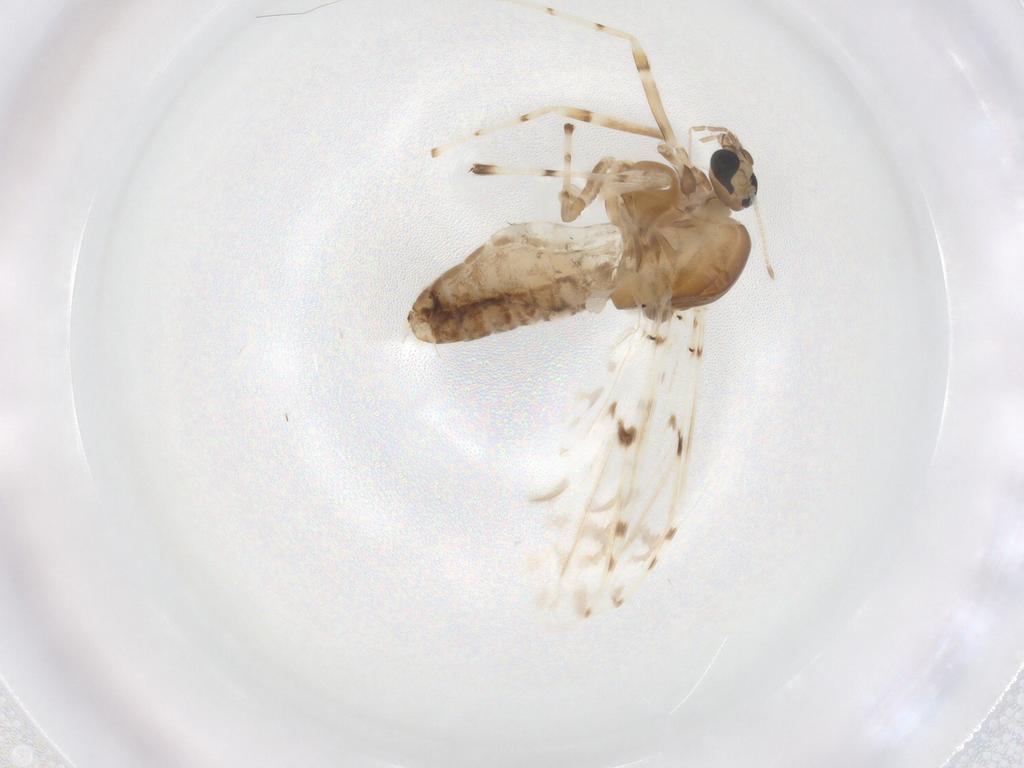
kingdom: Animalia
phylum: Arthropoda
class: Insecta
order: Diptera
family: Chironomidae
